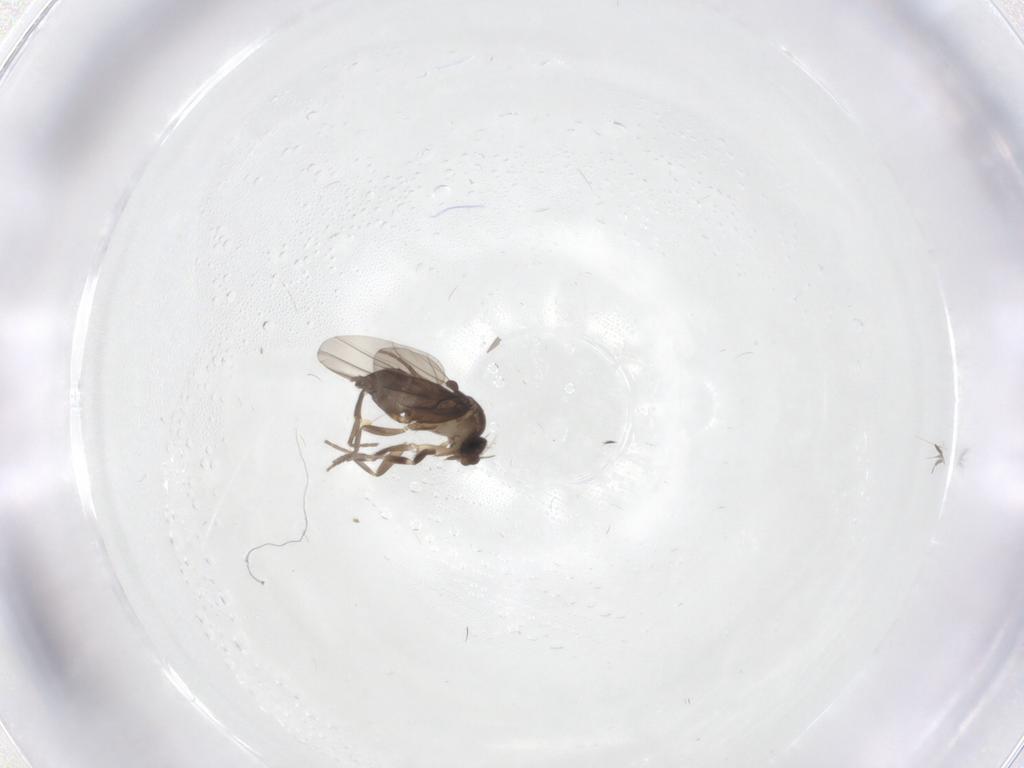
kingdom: Animalia
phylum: Arthropoda
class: Insecta
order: Diptera
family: Phoridae
